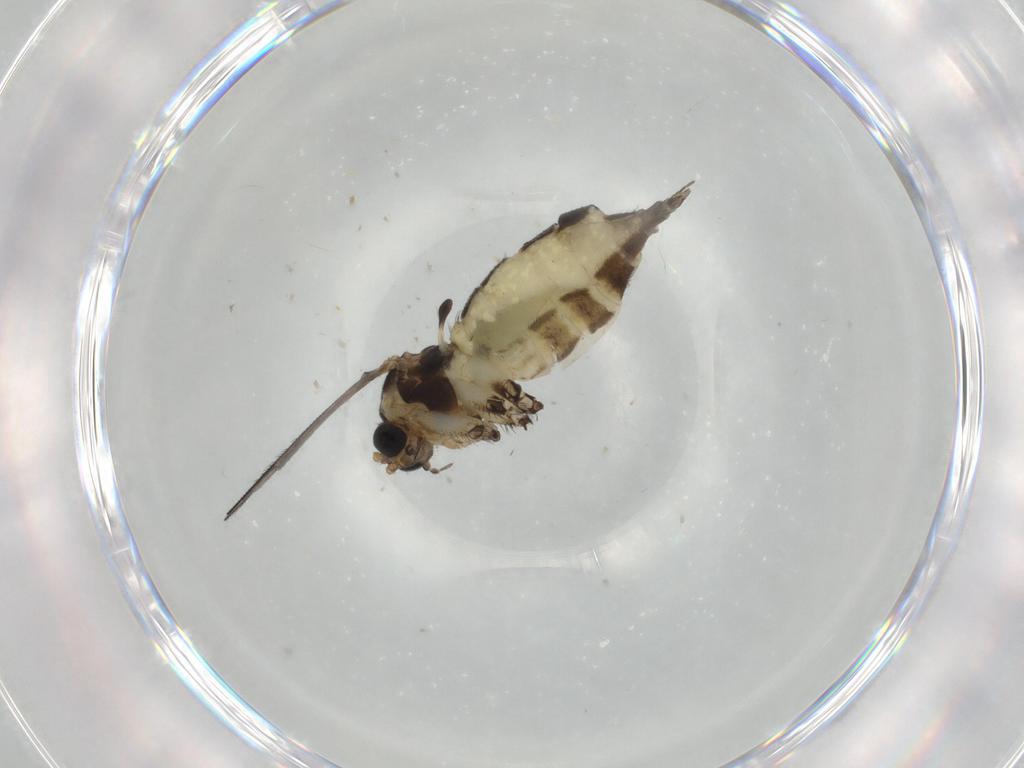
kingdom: Animalia
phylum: Arthropoda
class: Insecta
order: Diptera
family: Sciaridae
